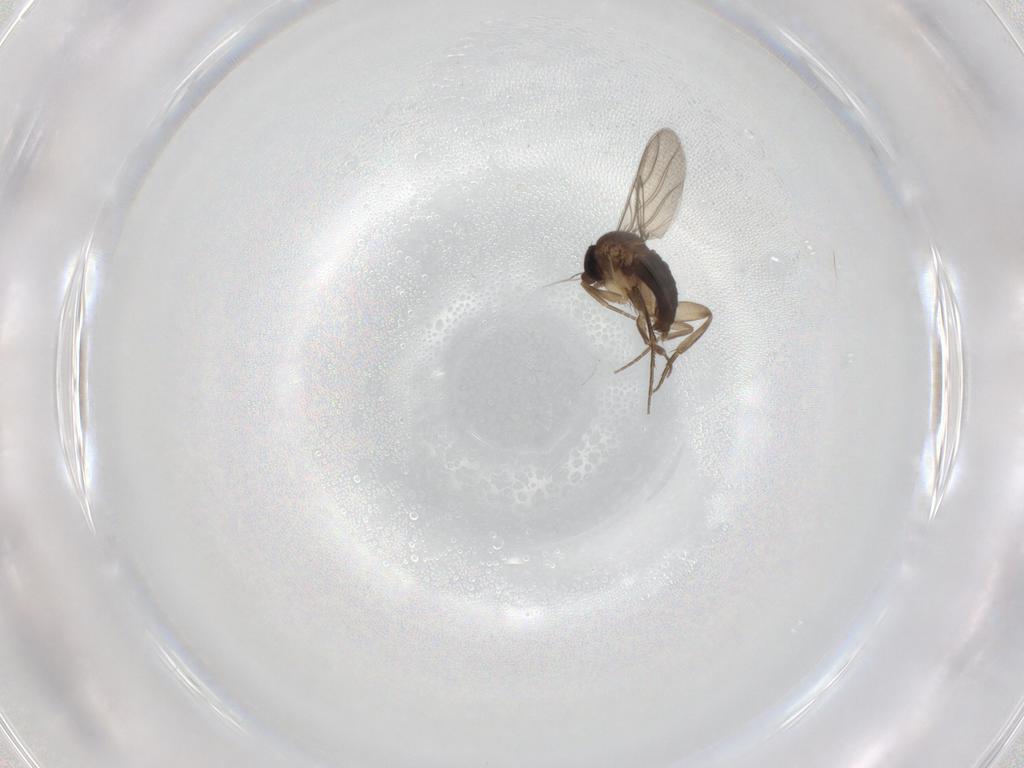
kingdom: Animalia
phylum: Arthropoda
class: Insecta
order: Diptera
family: Phoridae
